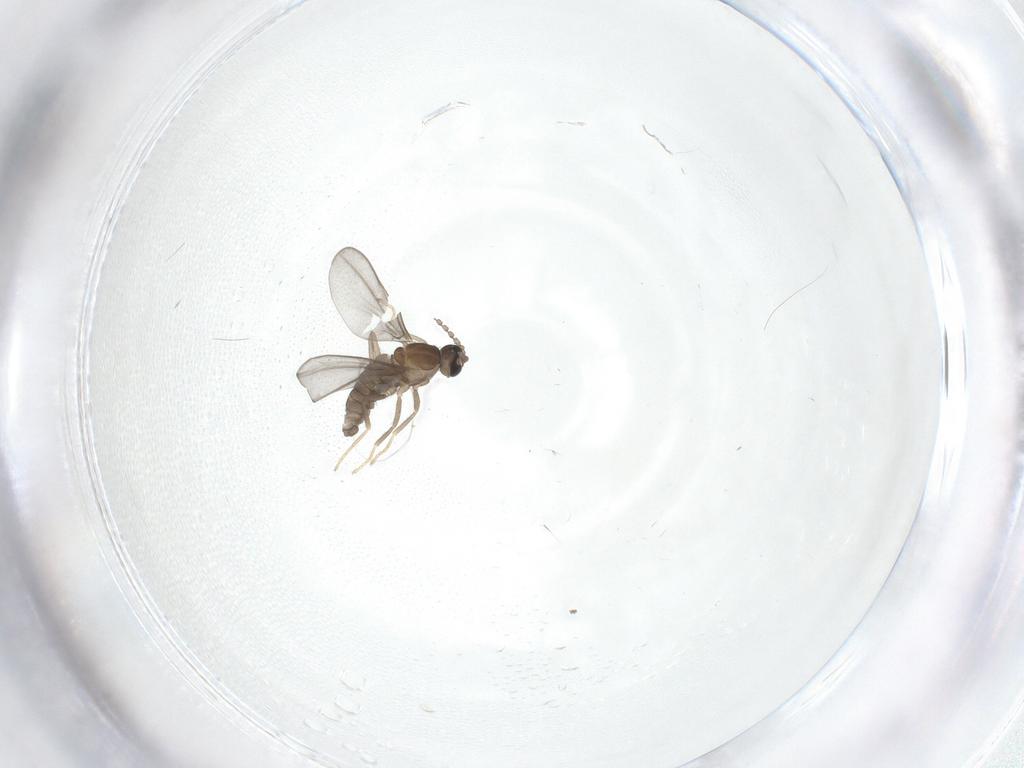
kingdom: Animalia
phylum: Arthropoda
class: Insecta
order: Diptera
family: Cecidomyiidae
